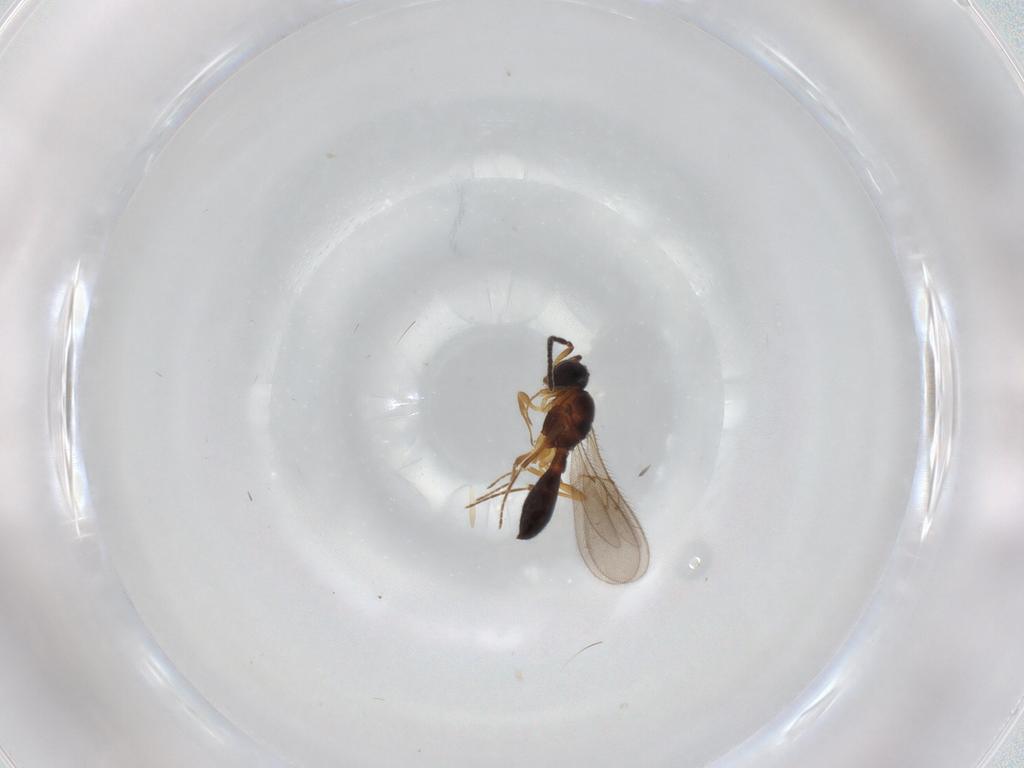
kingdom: Animalia
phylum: Arthropoda
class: Insecta
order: Hymenoptera
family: Scelionidae
